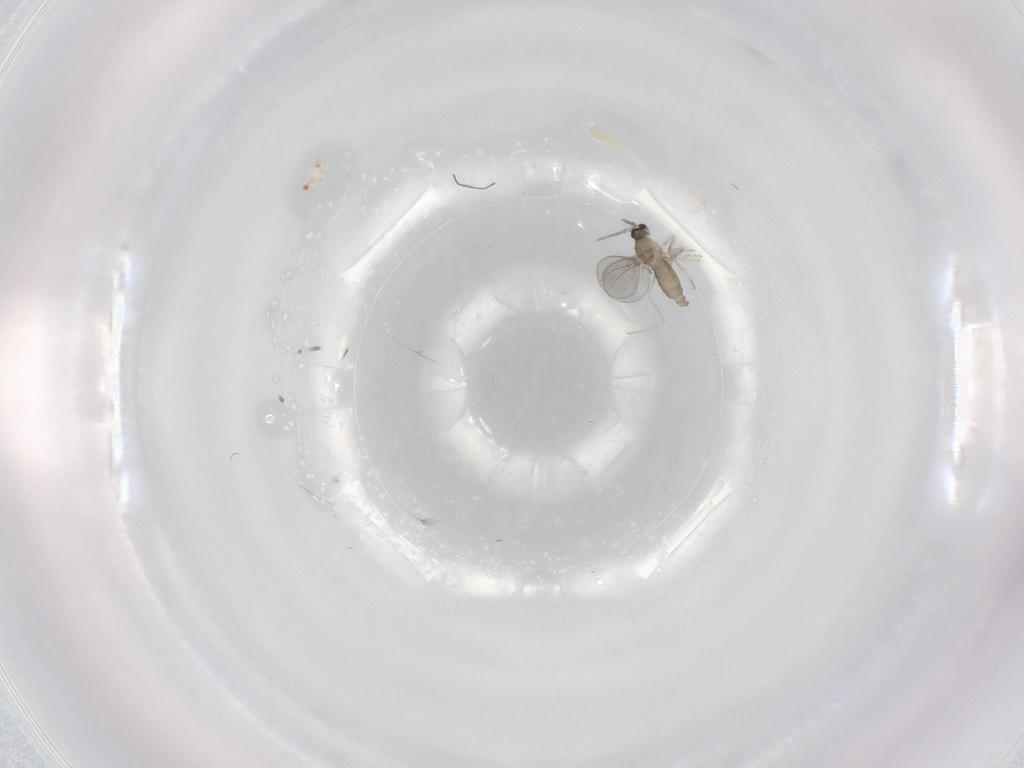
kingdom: Animalia
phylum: Arthropoda
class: Insecta
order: Diptera
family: Cecidomyiidae
